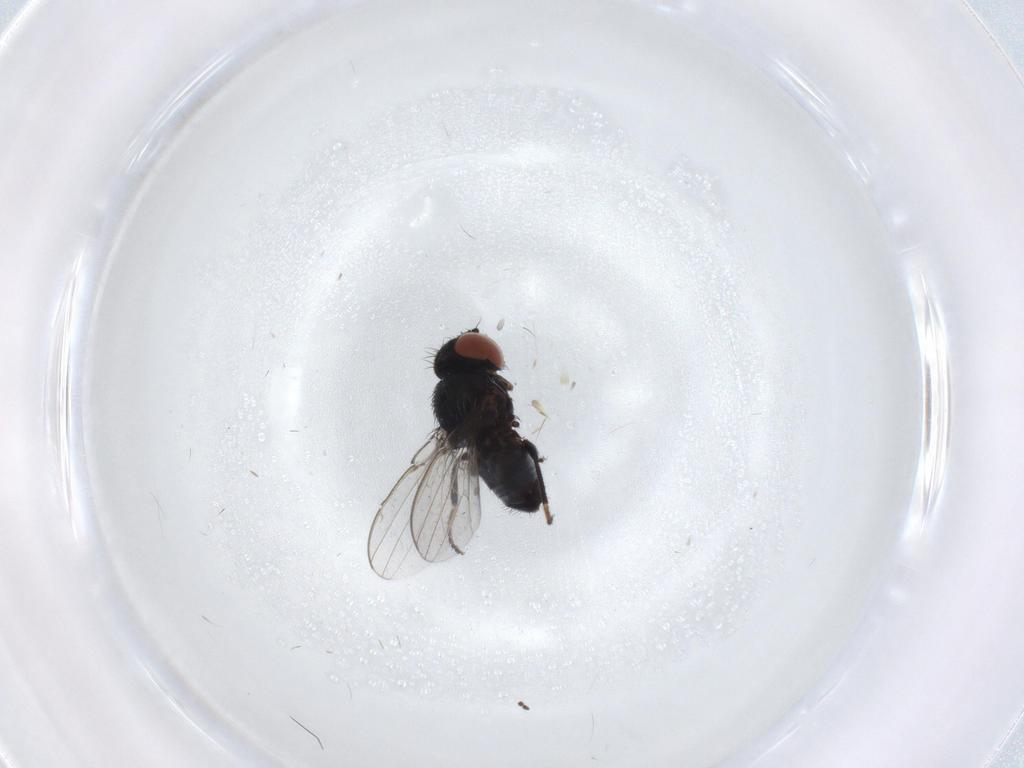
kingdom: Animalia
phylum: Arthropoda
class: Insecta
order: Diptera
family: Milichiidae
